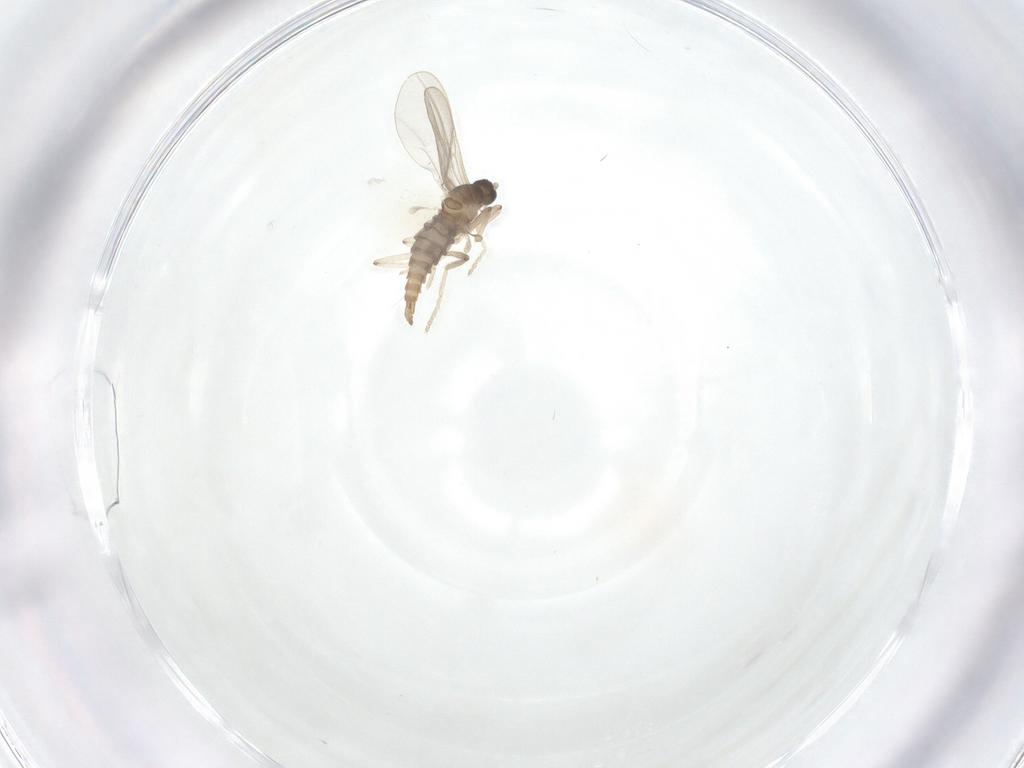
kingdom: Animalia
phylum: Arthropoda
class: Insecta
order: Diptera
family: Cecidomyiidae
